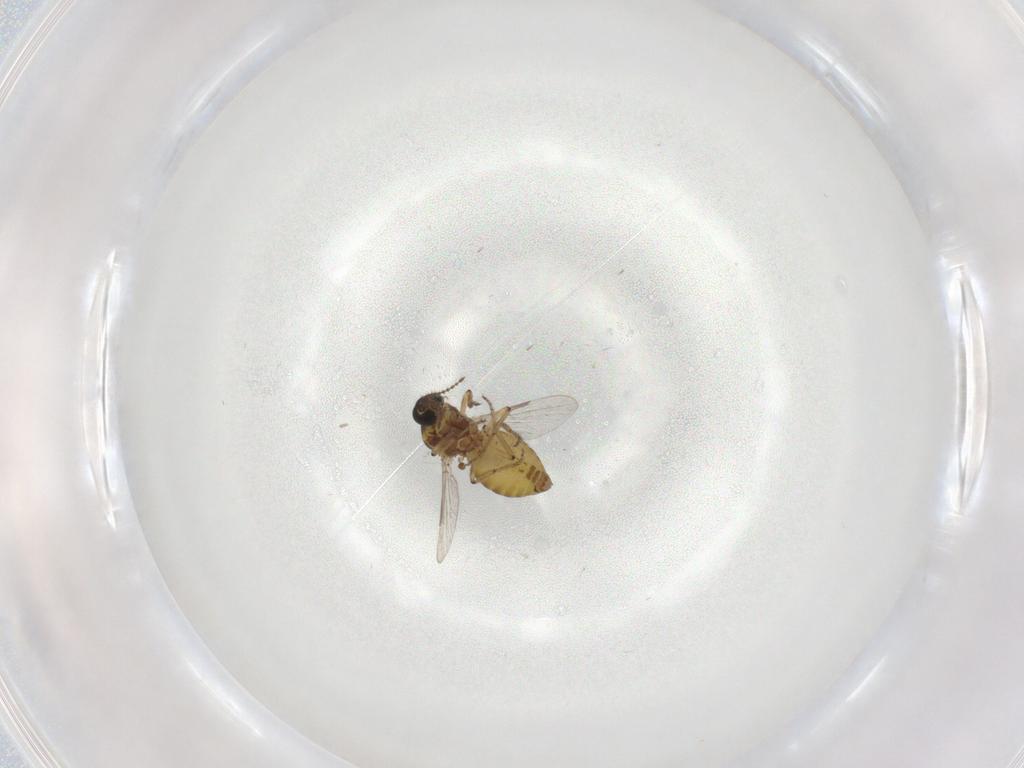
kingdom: Animalia
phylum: Arthropoda
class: Insecta
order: Diptera
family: Ceratopogonidae
